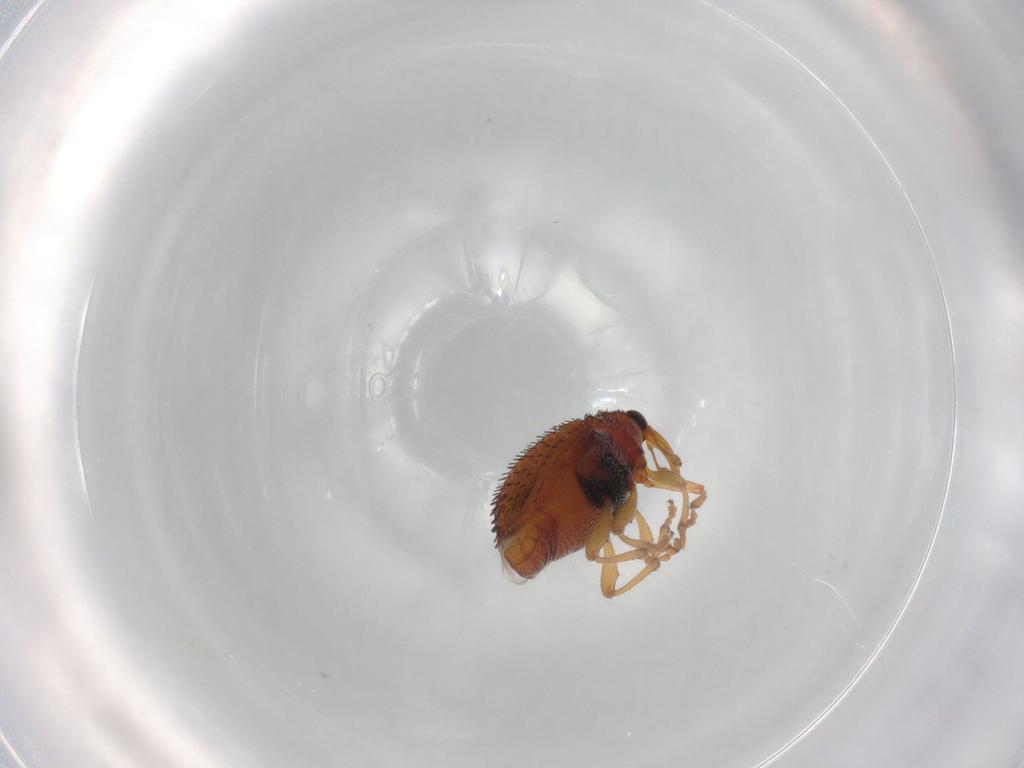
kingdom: Animalia
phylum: Arthropoda
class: Insecta
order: Coleoptera
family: Curculionidae
